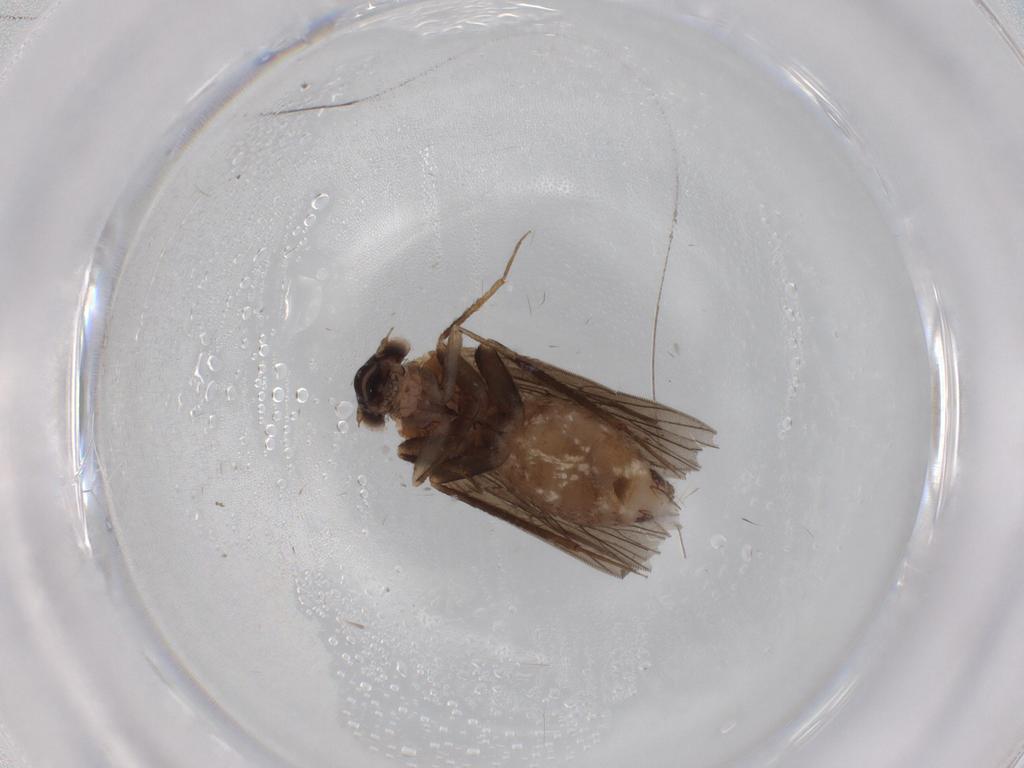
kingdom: Animalia
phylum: Arthropoda
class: Insecta
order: Psocodea
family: Lepidopsocidae
